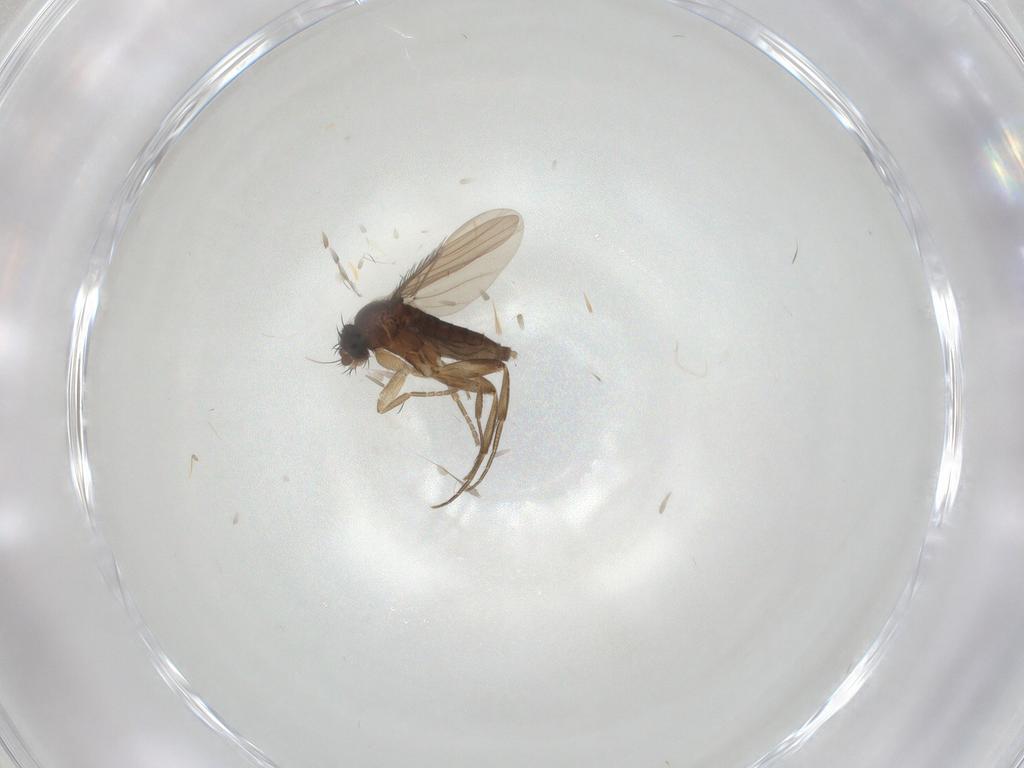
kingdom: Animalia
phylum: Arthropoda
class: Insecta
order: Diptera
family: Phoridae
